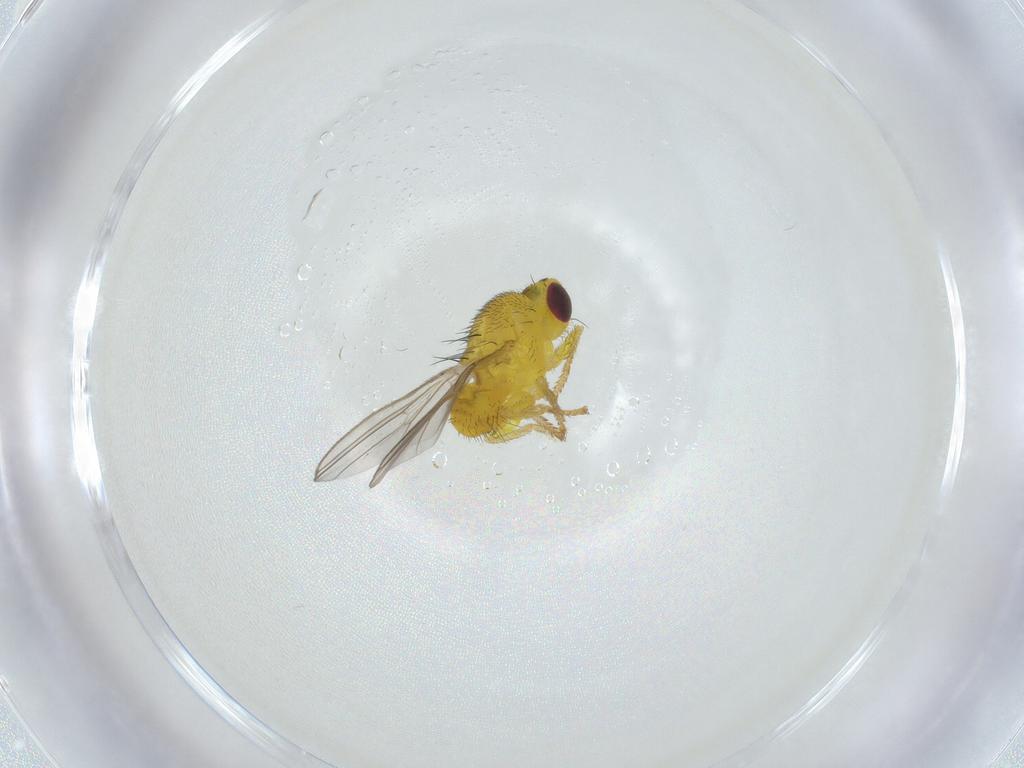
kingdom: Animalia
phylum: Arthropoda
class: Insecta
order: Diptera
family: Fergusoninidae
